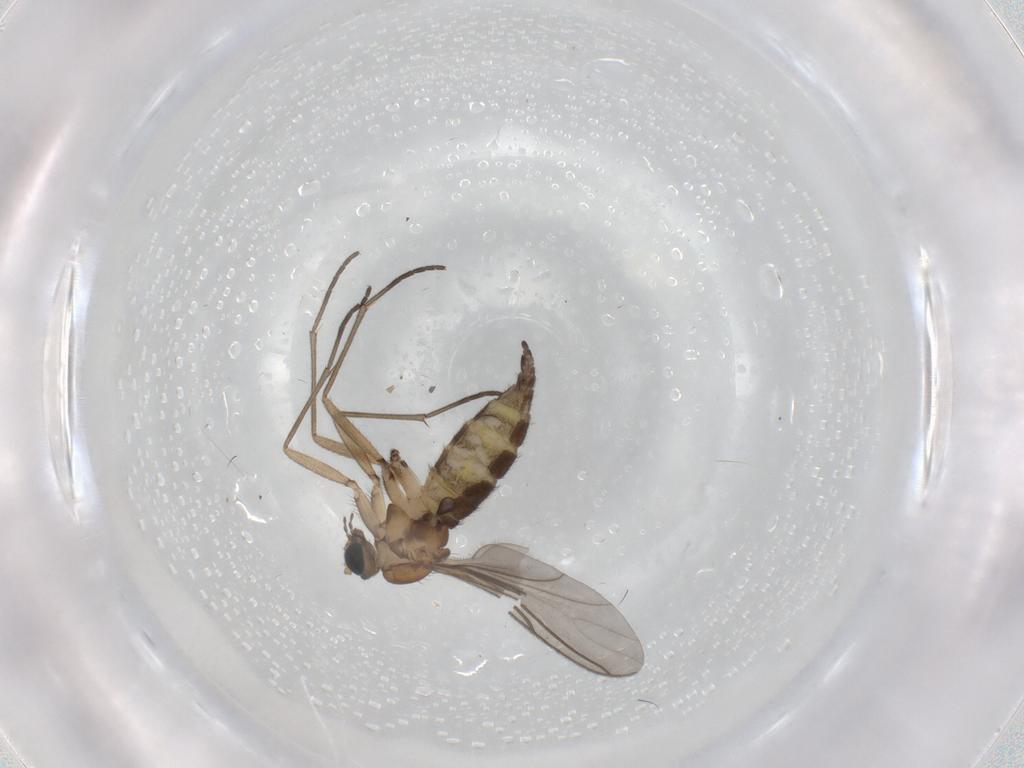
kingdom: Animalia
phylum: Arthropoda
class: Insecta
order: Diptera
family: Sciaridae
